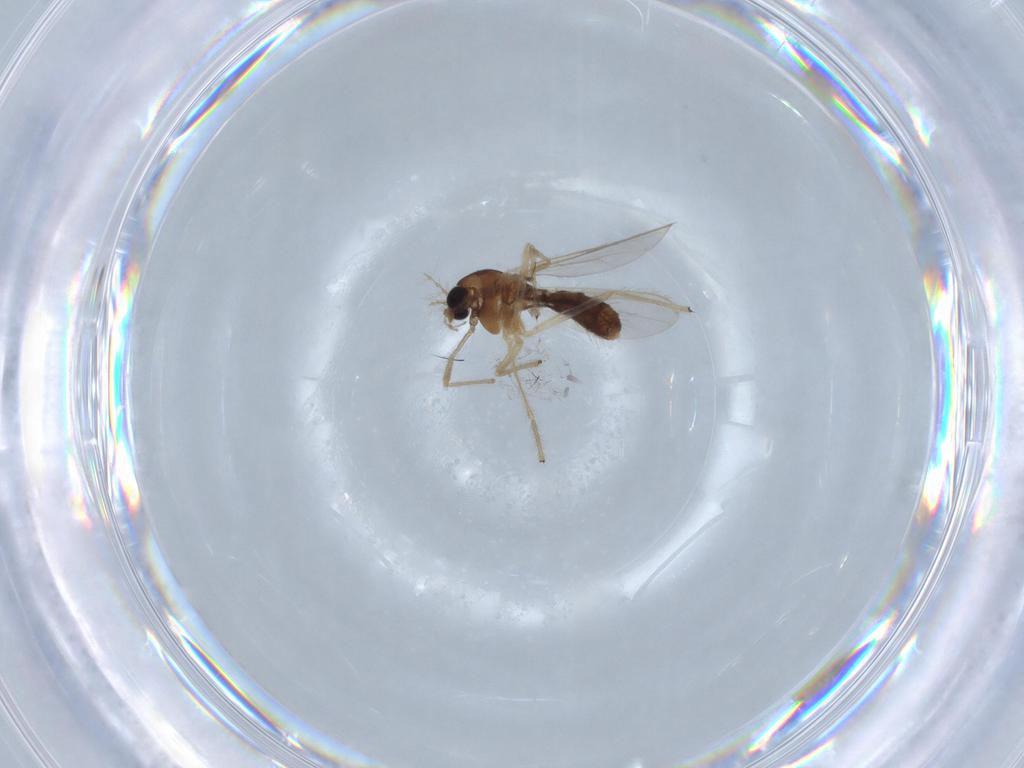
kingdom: Animalia
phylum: Arthropoda
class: Insecta
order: Diptera
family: Chironomidae
